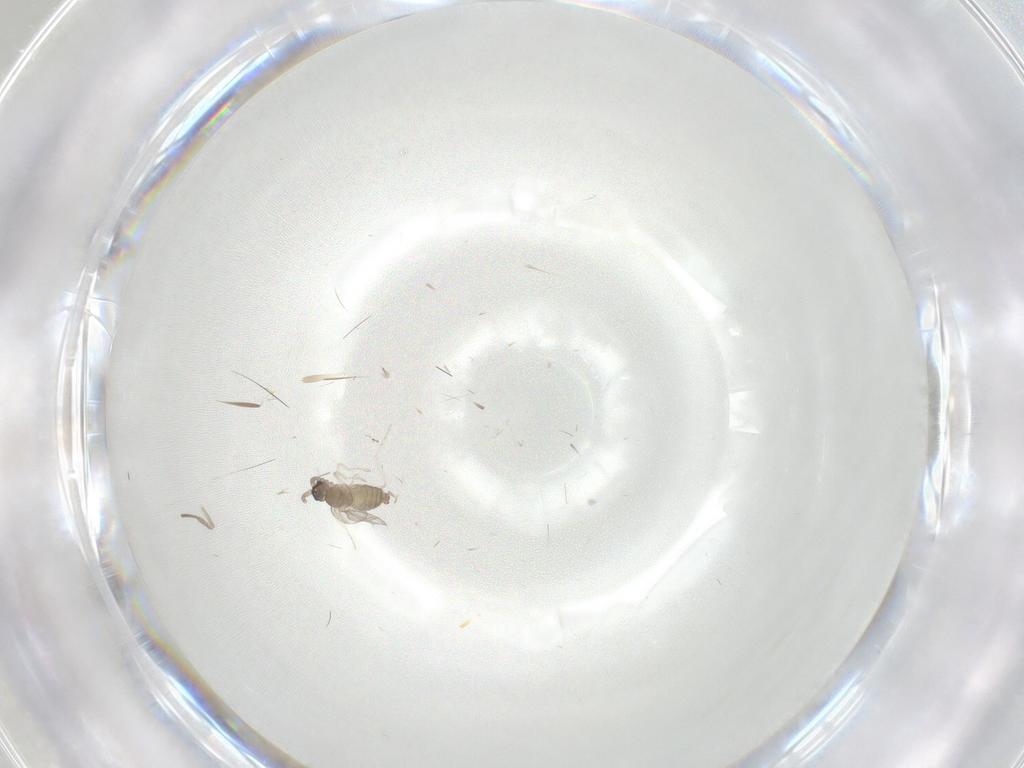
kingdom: Animalia
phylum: Arthropoda
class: Insecta
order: Diptera
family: Psychodidae
